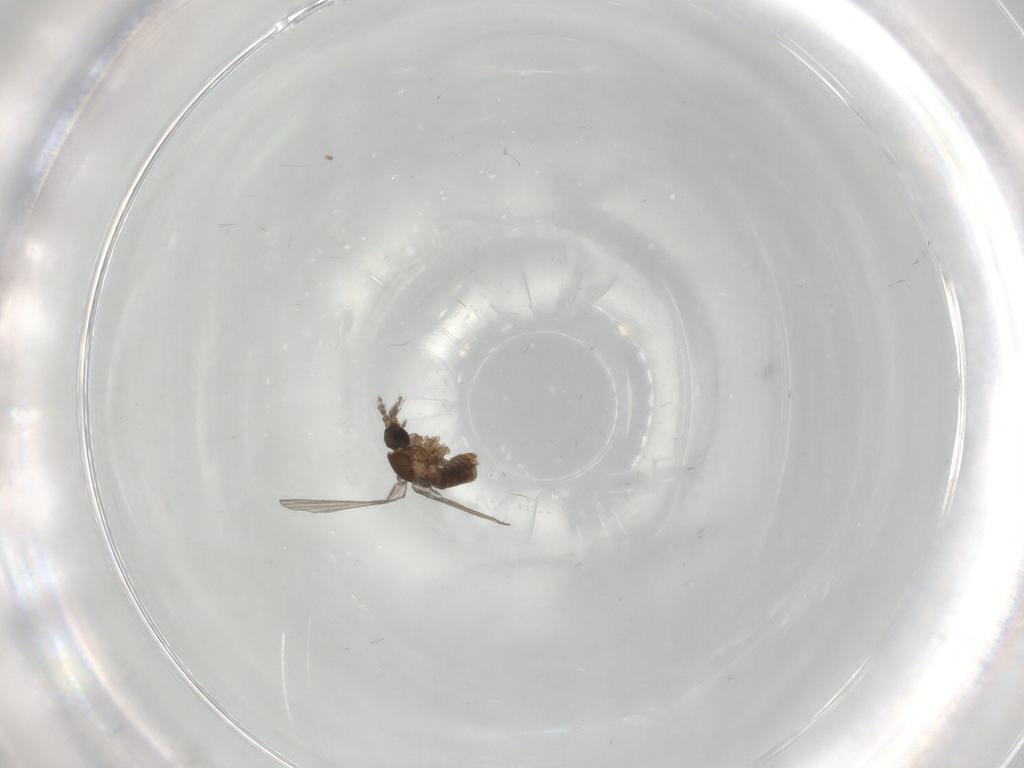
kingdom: Animalia
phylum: Arthropoda
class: Insecta
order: Diptera
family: Psychodidae
